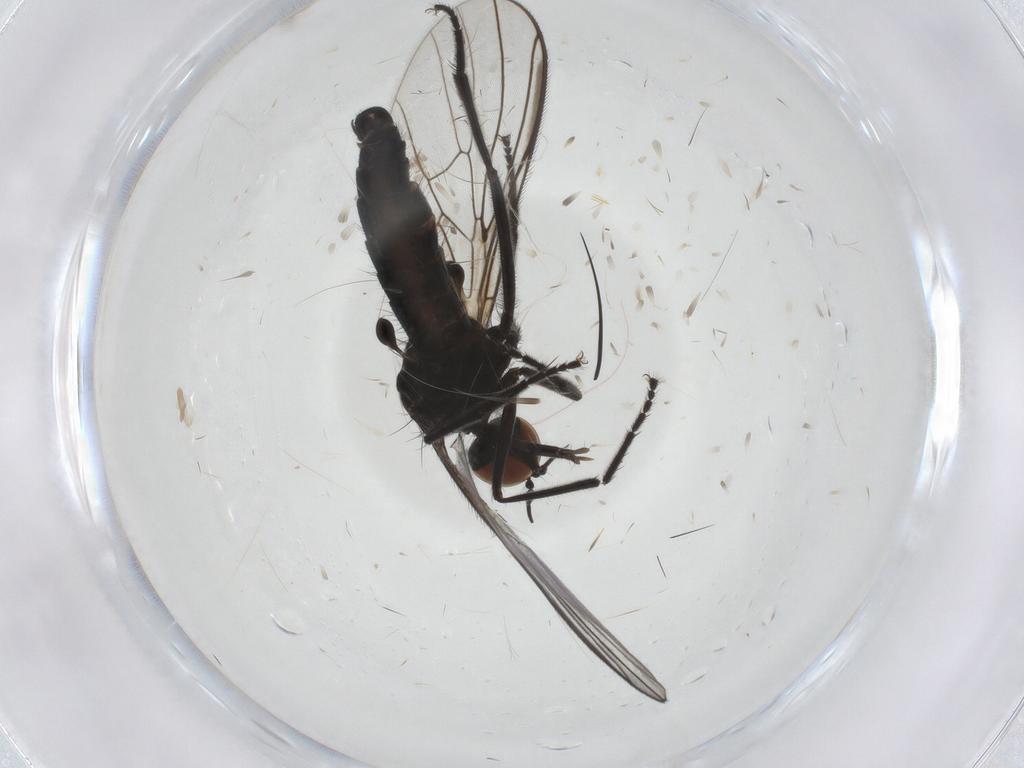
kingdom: Animalia
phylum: Arthropoda
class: Insecta
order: Diptera
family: Empididae
